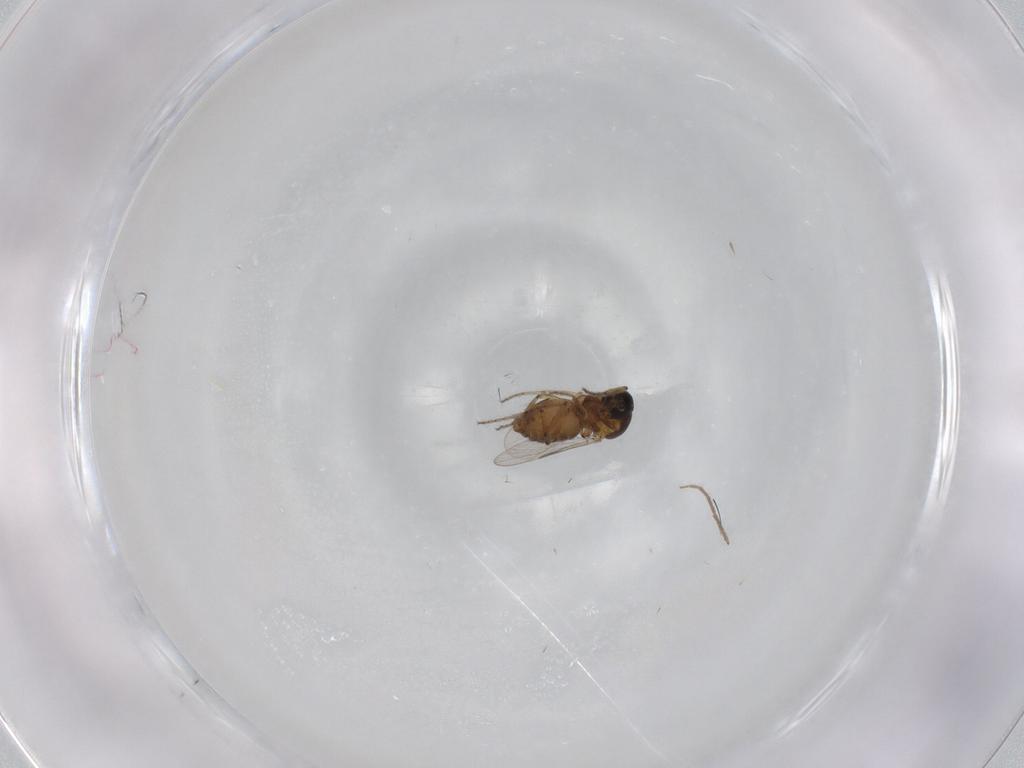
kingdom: Animalia
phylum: Arthropoda
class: Insecta
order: Diptera
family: Ceratopogonidae
